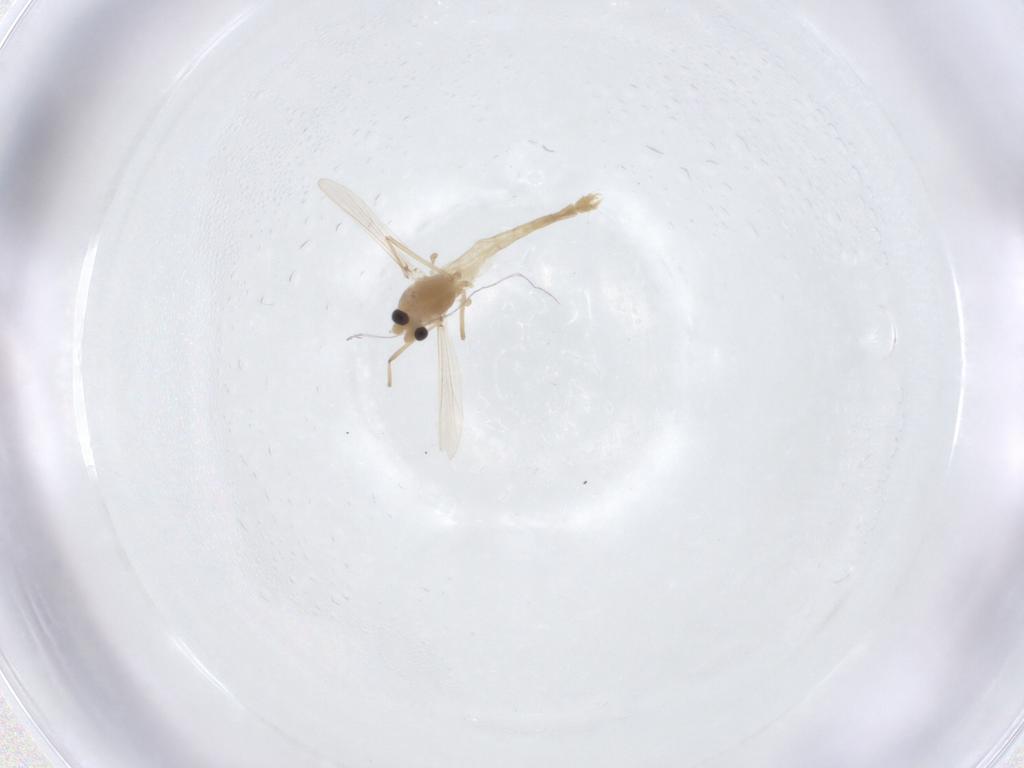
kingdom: Animalia
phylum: Arthropoda
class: Insecta
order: Diptera
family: Chironomidae
